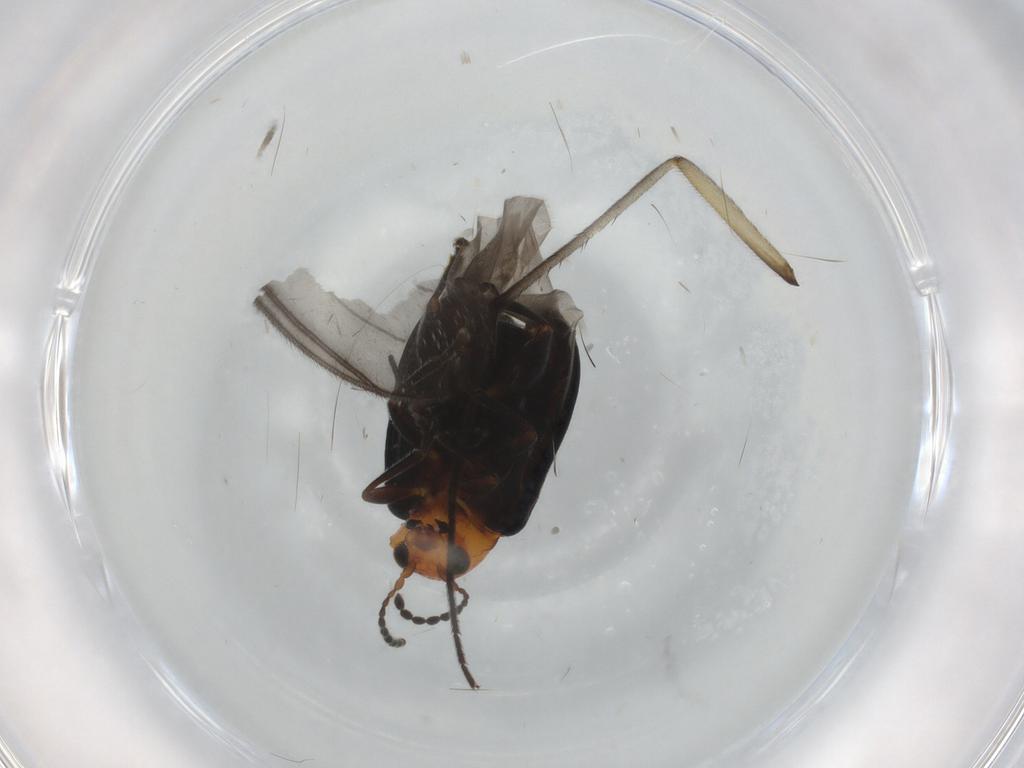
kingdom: Animalia
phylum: Arthropoda
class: Insecta
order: Coleoptera
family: Chrysomelidae
